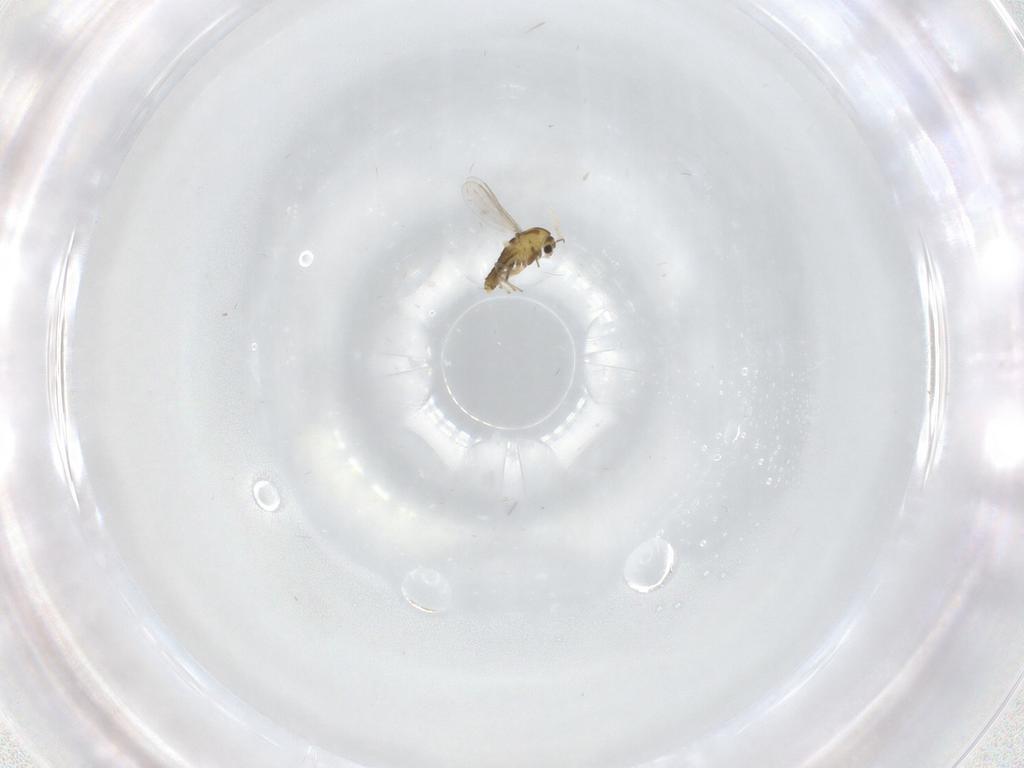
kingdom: Animalia
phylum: Arthropoda
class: Insecta
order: Diptera
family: Chironomidae
